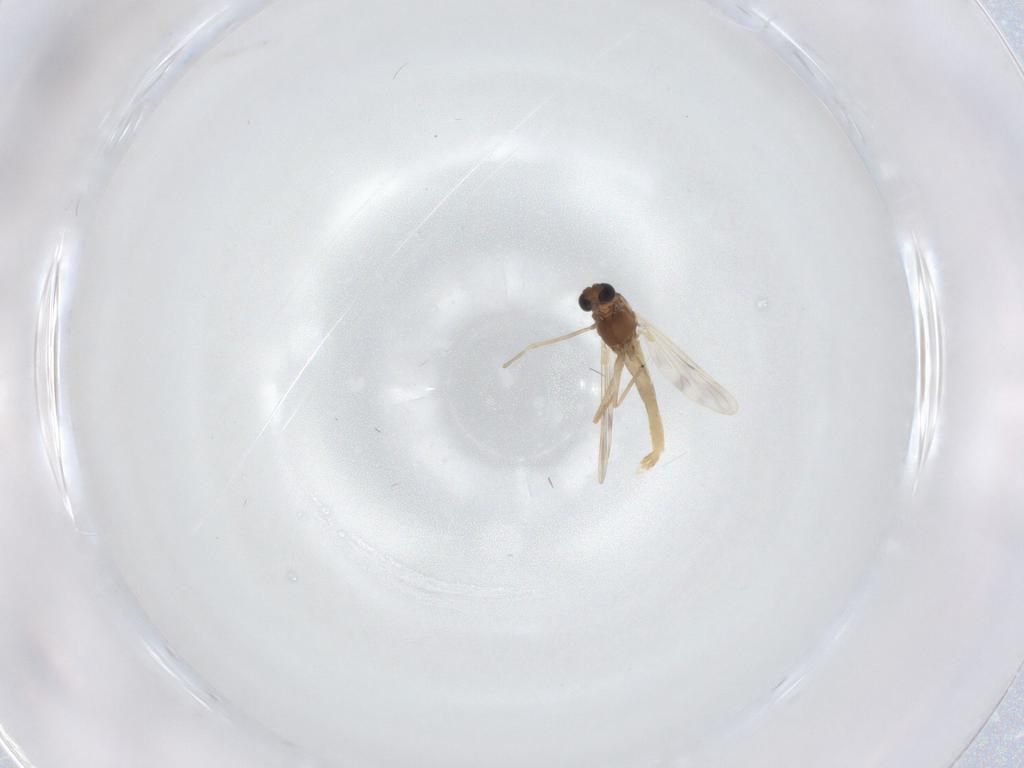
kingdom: Animalia
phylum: Arthropoda
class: Insecta
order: Diptera
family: Chironomidae
